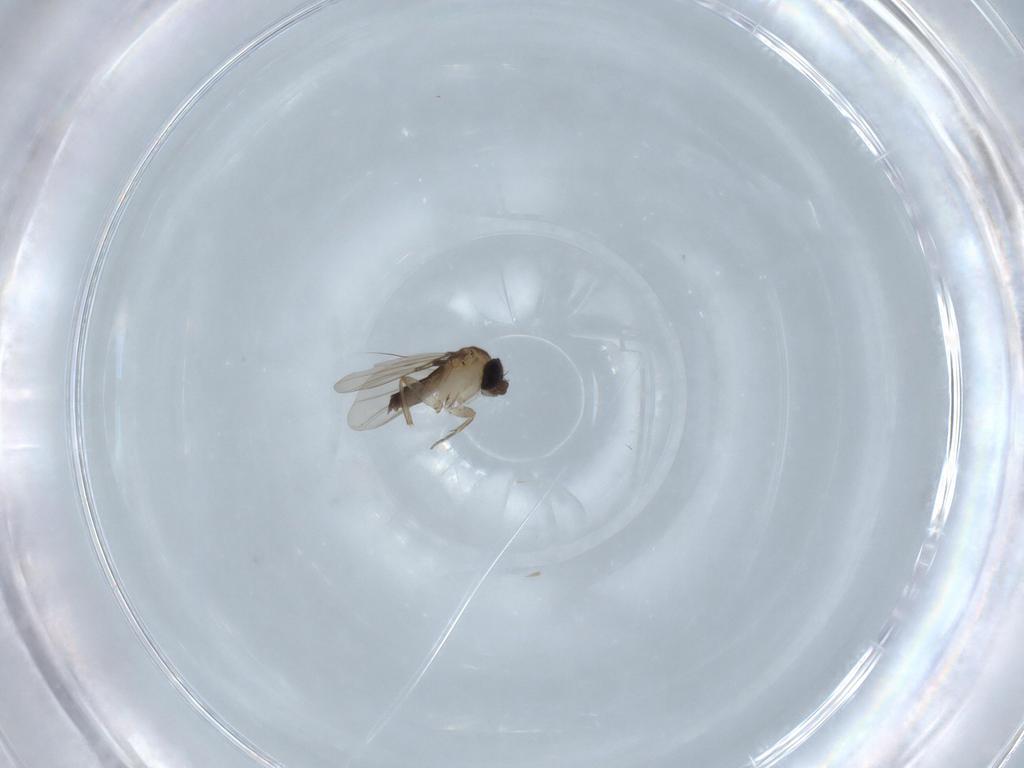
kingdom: Animalia
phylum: Arthropoda
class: Insecta
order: Diptera
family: Phoridae
